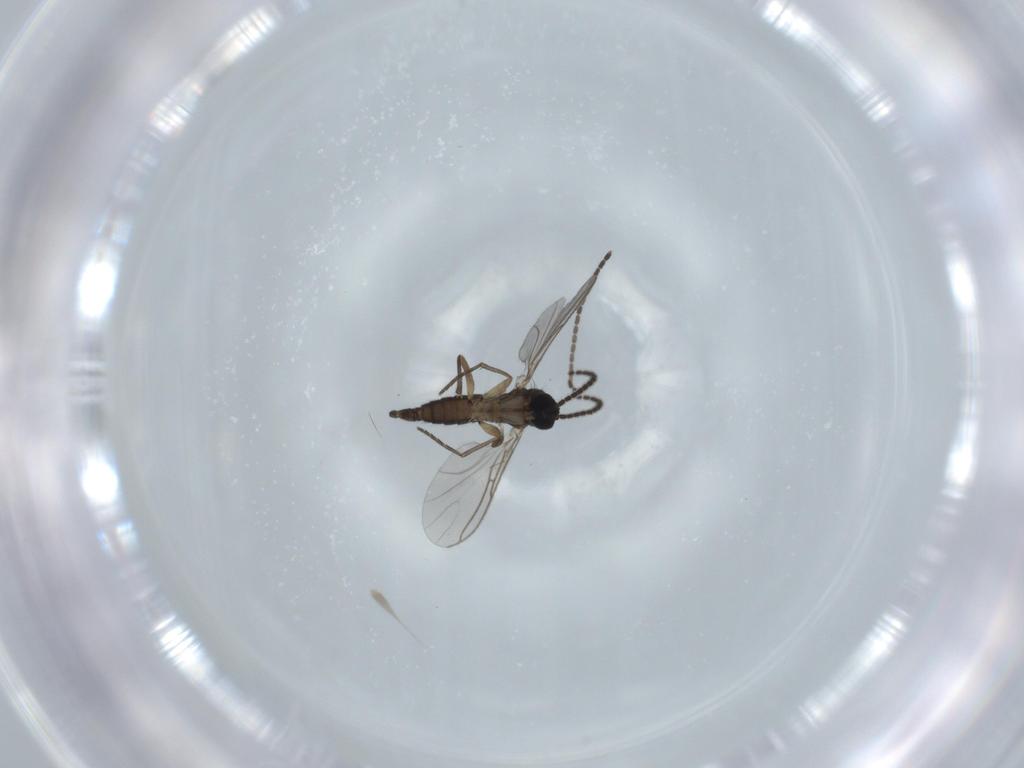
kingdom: Animalia
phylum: Arthropoda
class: Insecta
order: Diptera
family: Sciaridae
